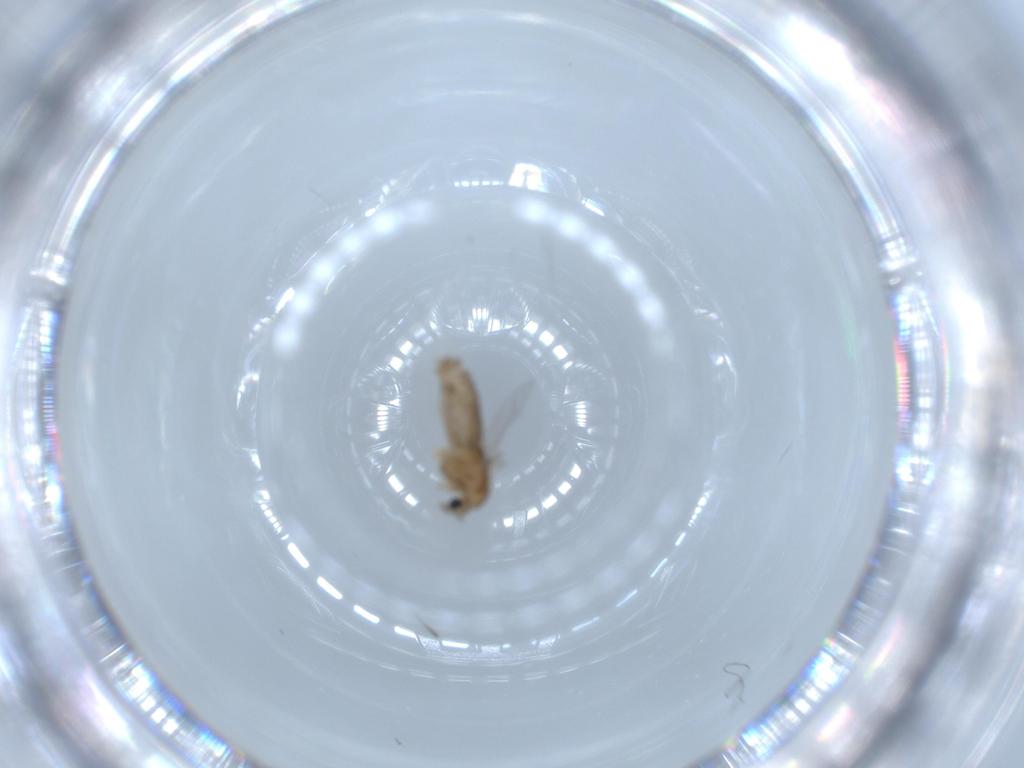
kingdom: Animalia
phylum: Arthropoda
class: Insecta
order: Diptera
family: Chironomidae
